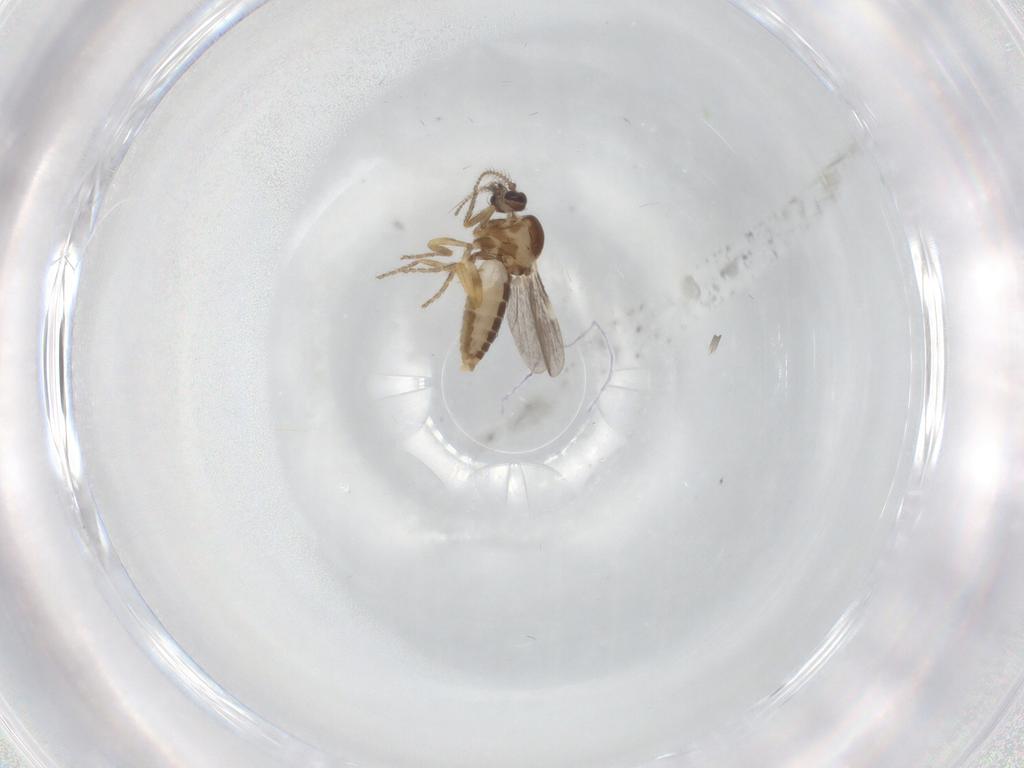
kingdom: Animalia
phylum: Arthropoda
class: Insecta
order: Diptera
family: Ceratopogonidae
